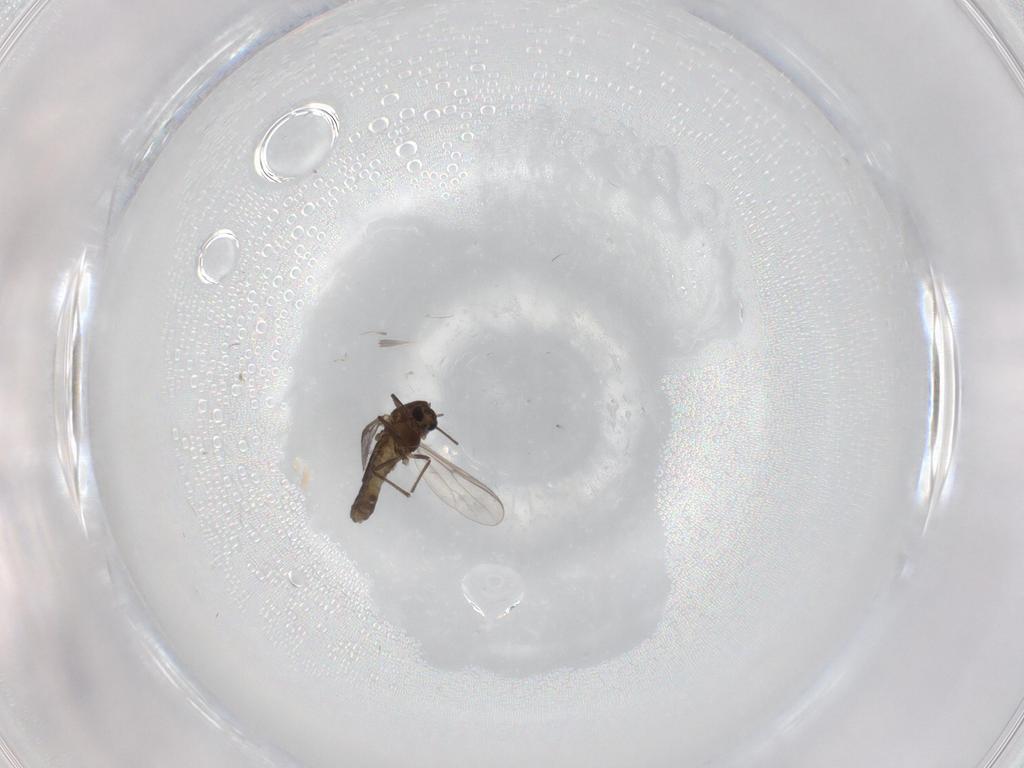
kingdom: Animalia
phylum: Arthropoda
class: Insecta
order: Diptera
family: Chironomidae
